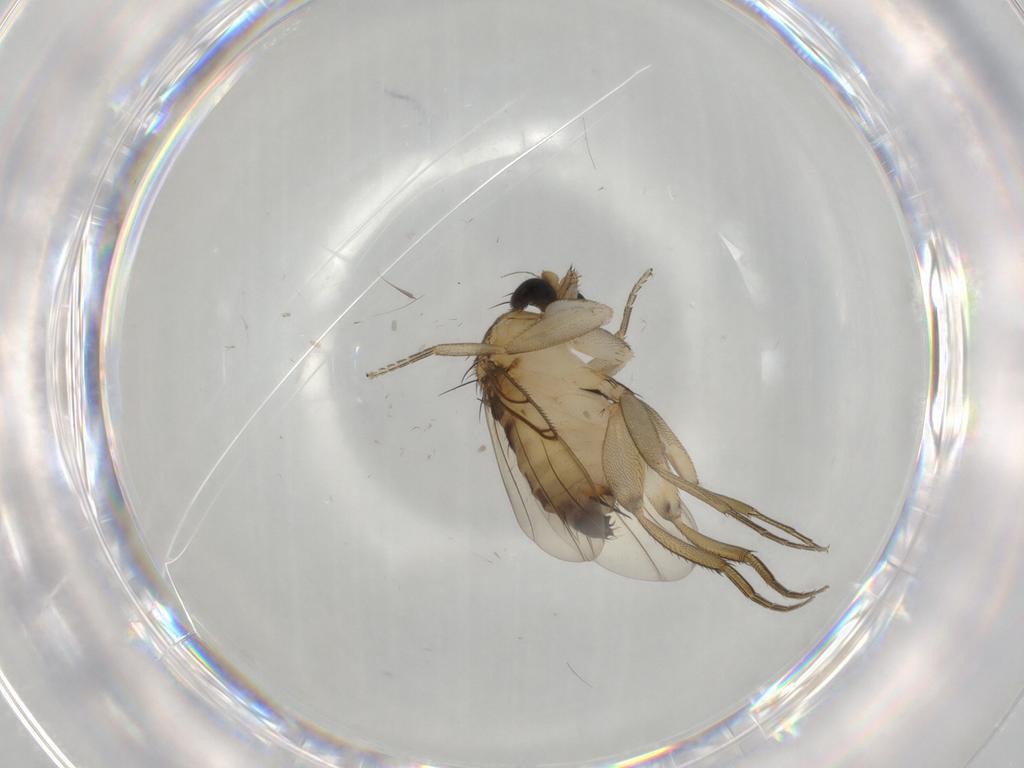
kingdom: Animalia
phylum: Arthropoda
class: Insecta
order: Diptera
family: Phoridae
